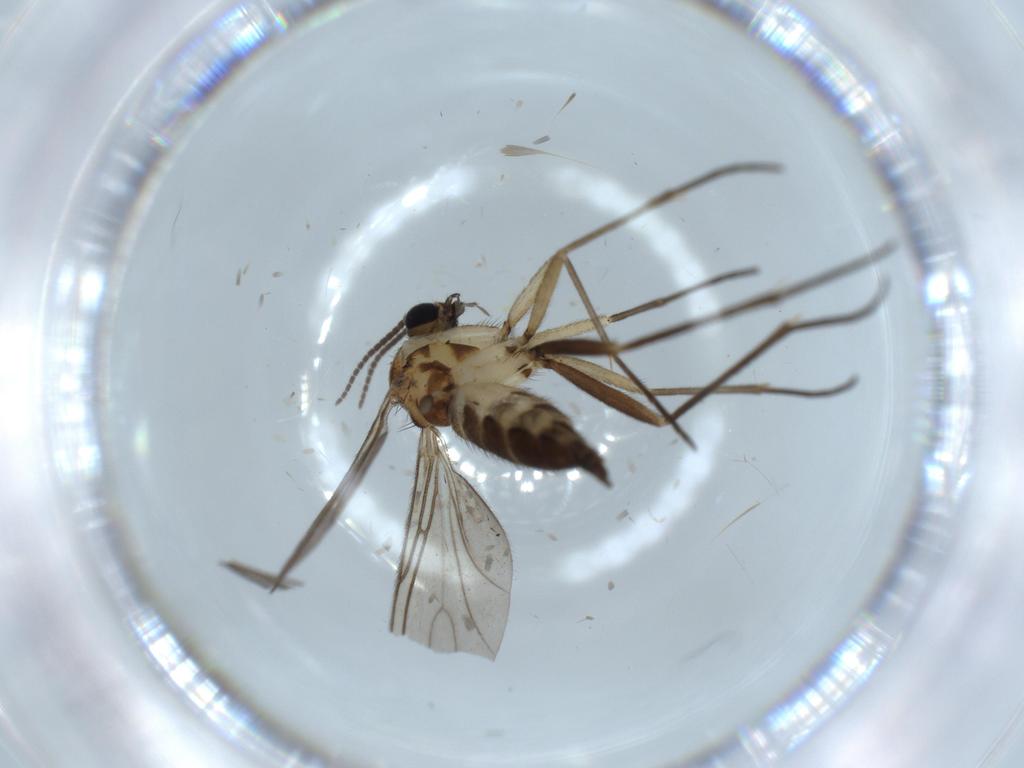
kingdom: Animalia
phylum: Arthropoda
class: Insecta
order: Diptera
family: Sciaridae
